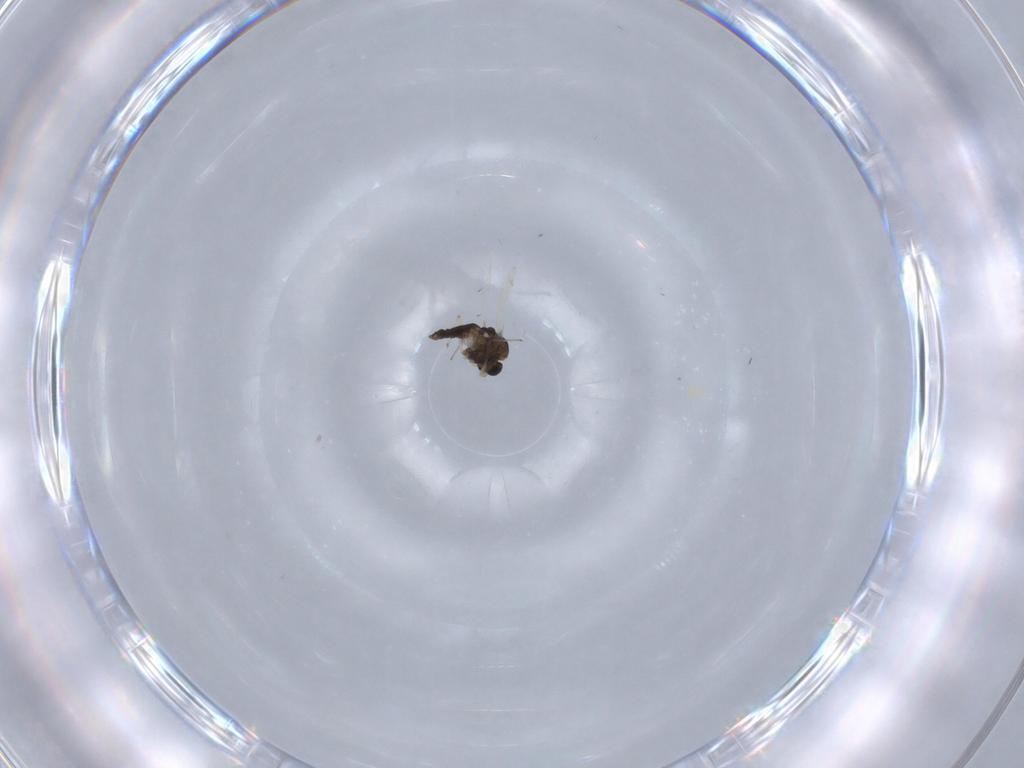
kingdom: Animalia
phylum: Arthropoda
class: Insecta
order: Diptera
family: Chironomidae
